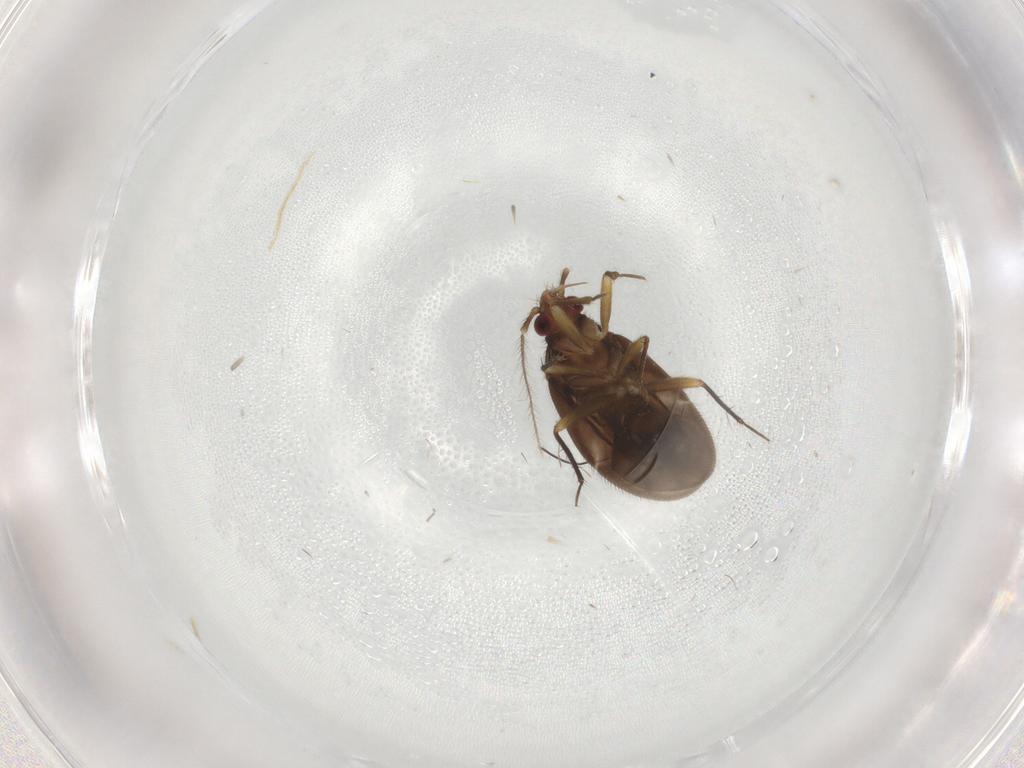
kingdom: Animalia
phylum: Arthropoda
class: Insecta
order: Hemiptera
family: Ceratocombidae
